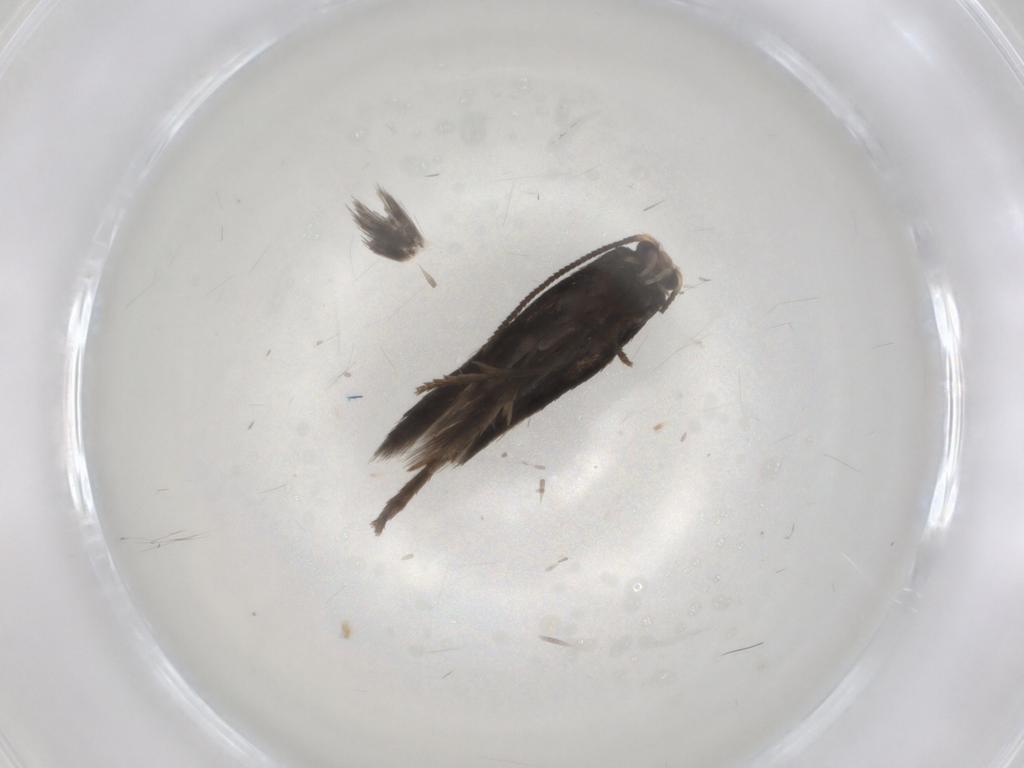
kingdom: Animalia
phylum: Arthropoda
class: Insecta
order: Lepidoptera
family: Nepticulidae
